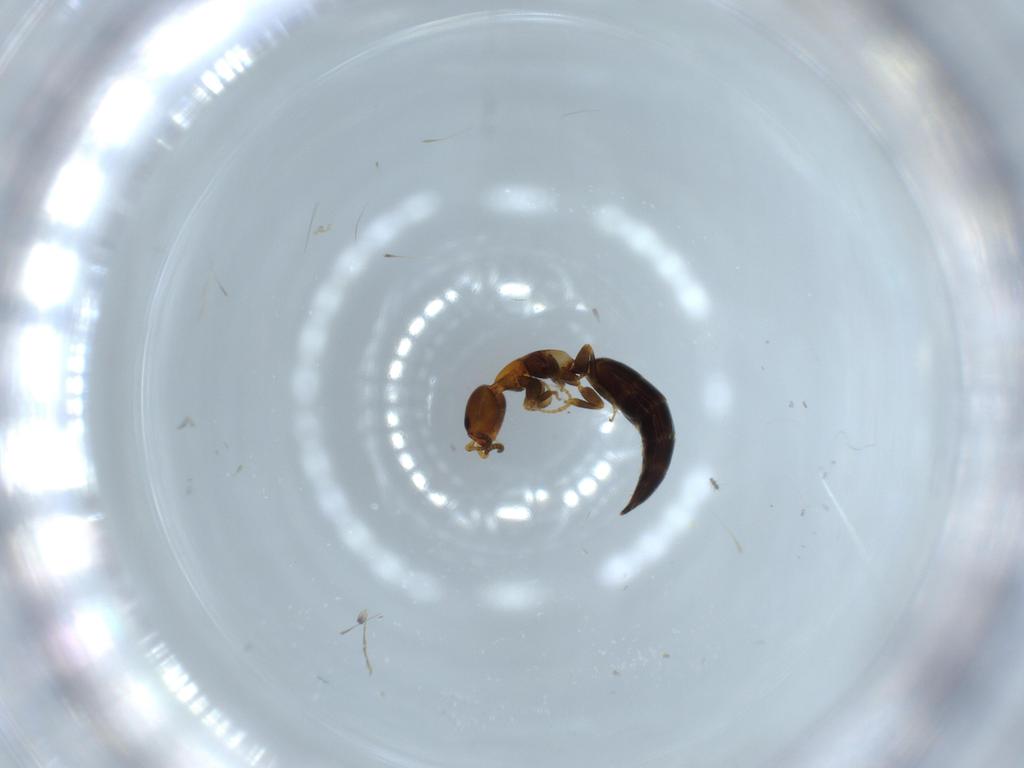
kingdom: Animalia
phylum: Arthropoda
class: Insecta
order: Hymenoptera
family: Bethylidae
